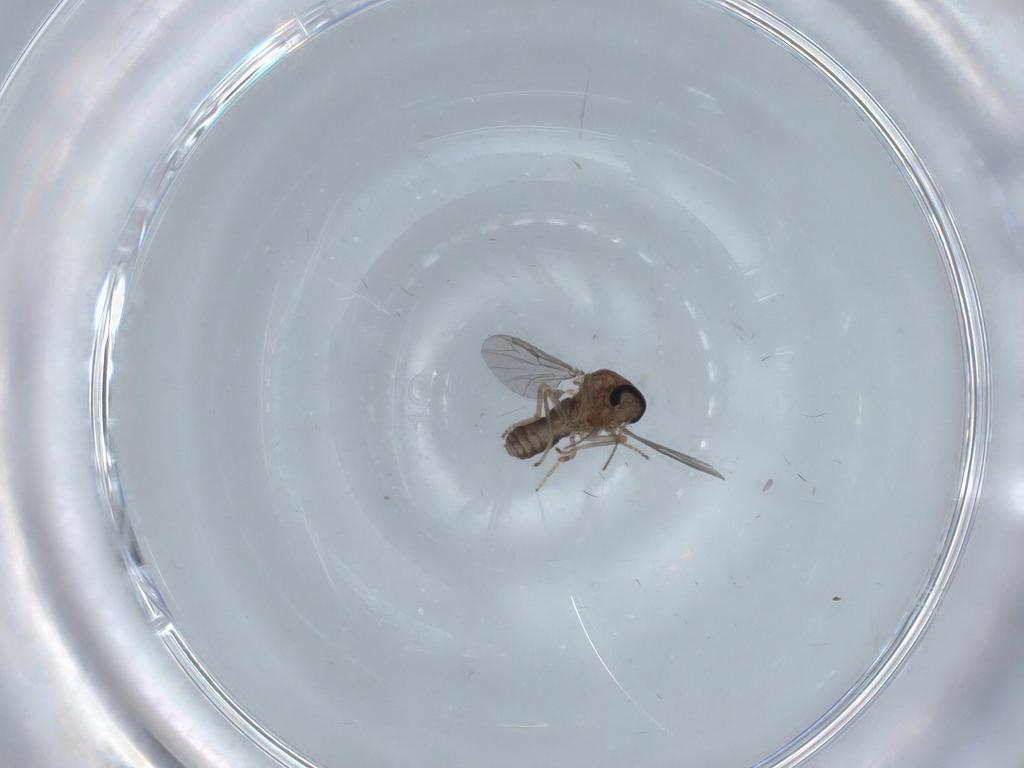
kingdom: Animalia
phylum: Arthropoda
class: Insecta
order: Diptera
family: Ceratopogonidae
